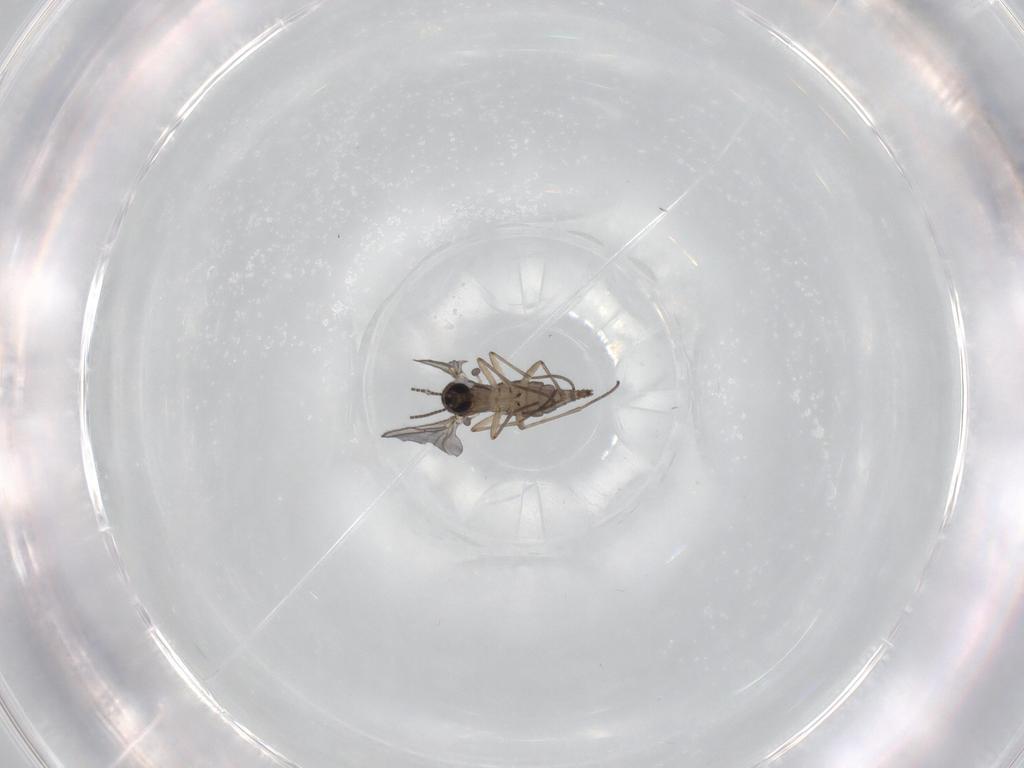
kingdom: Animalia
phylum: Arthropoda
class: Insecta
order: Diptera
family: Sciaridae
